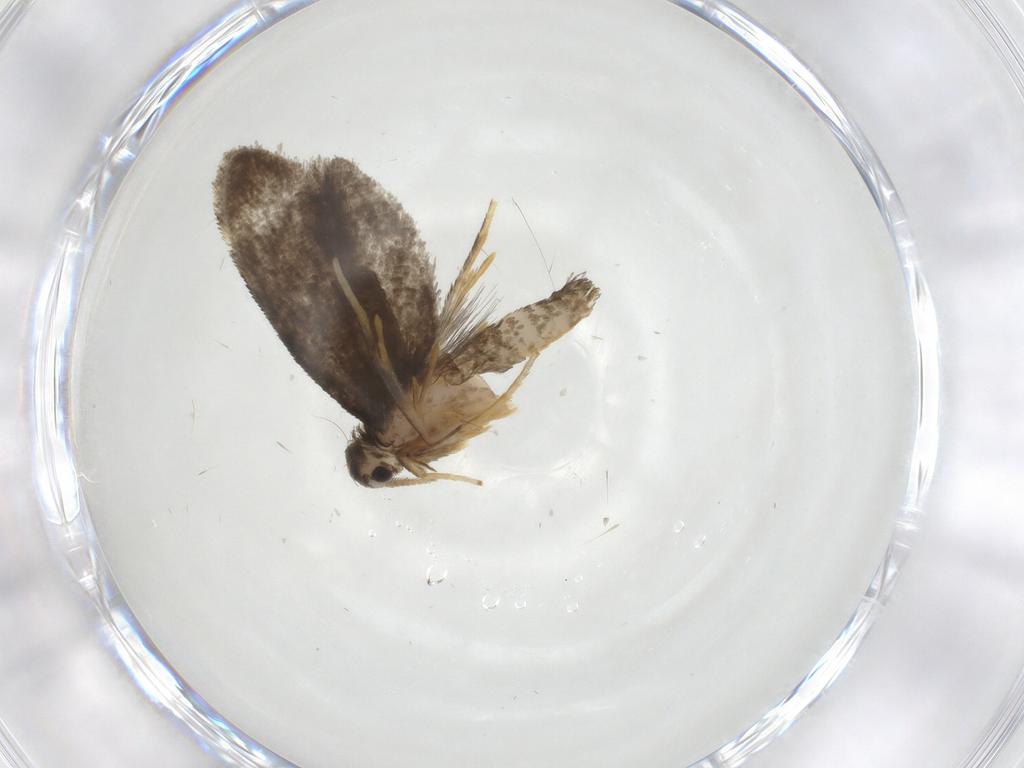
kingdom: Animalia
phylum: Arthropoda
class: Insecta
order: Lepidoptera
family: Psychidae
